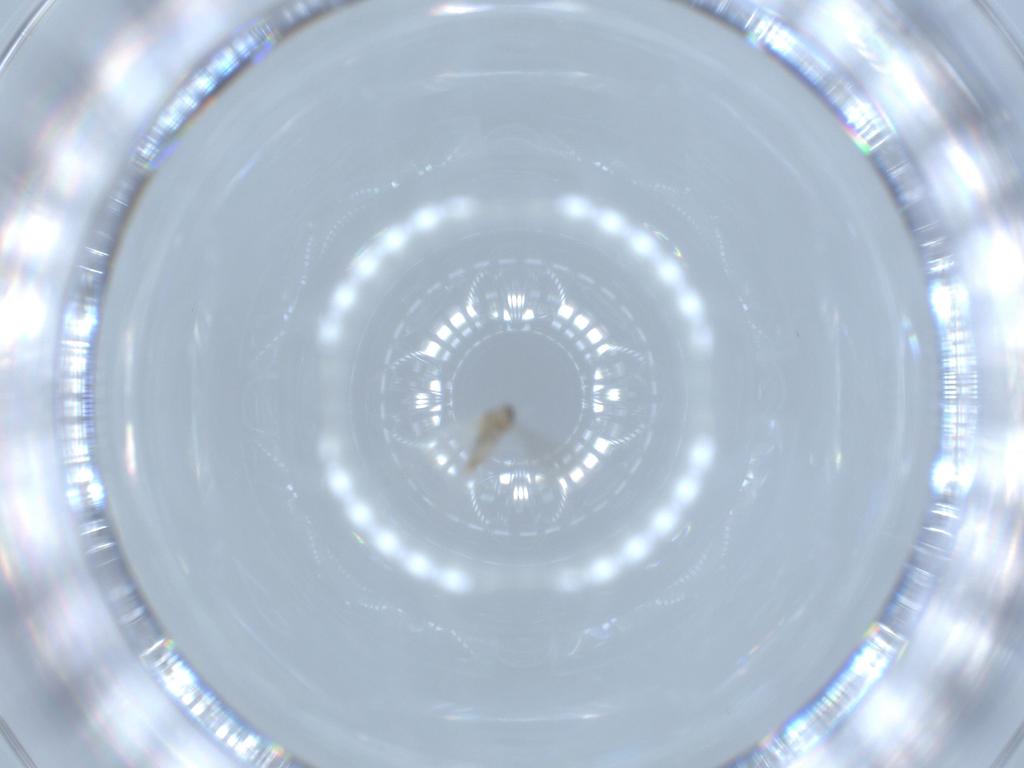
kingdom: Animalia
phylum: Arthropoda
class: Insecta
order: Diptera
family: Cecidomyiidae
